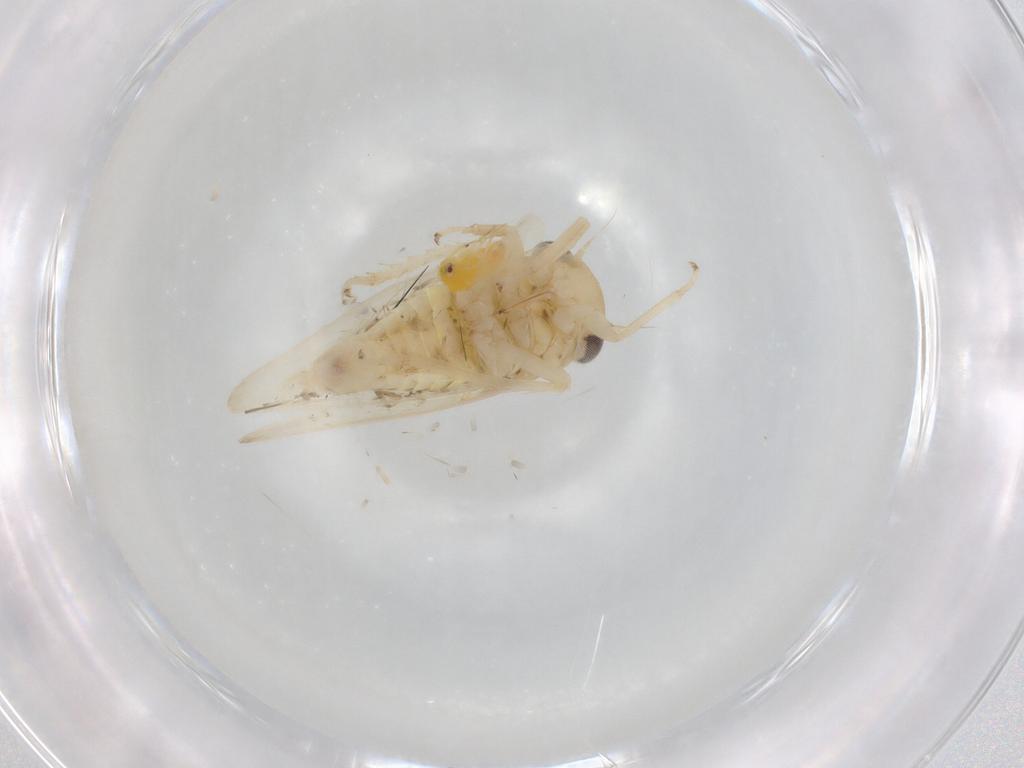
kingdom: Animalia
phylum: Arthropoda
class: Insecta
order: Hemiptera
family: Cicadellidae
